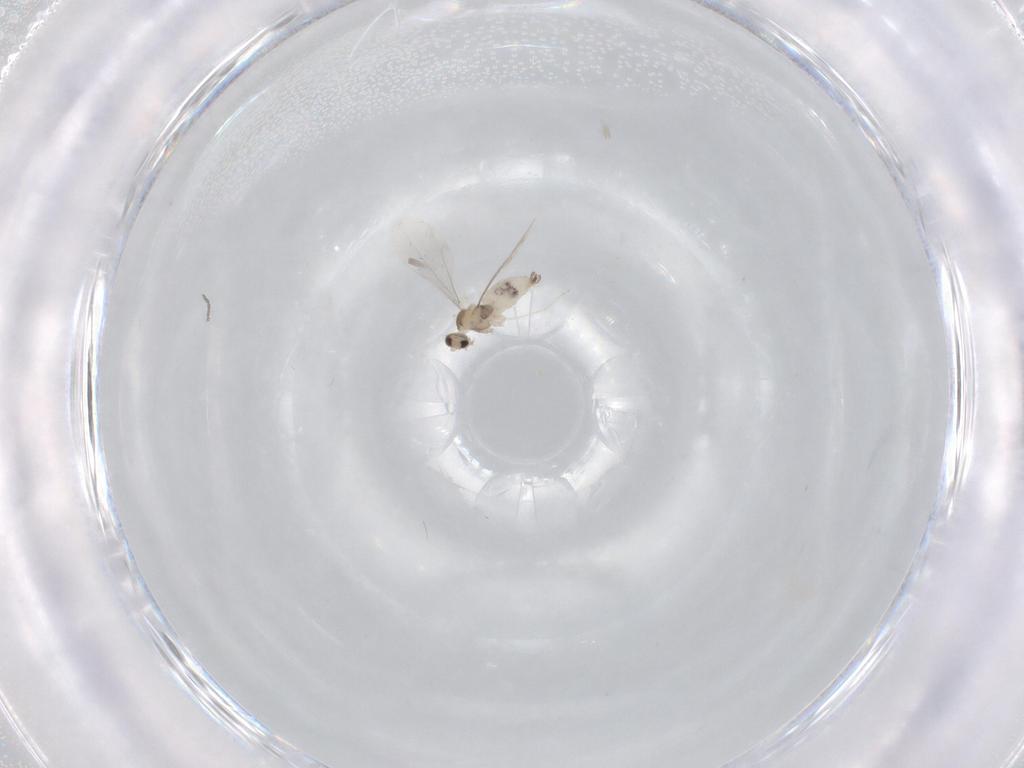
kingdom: Animalia
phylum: Arthropoda
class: Insecta
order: Diptera
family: Cecidomyiidae
